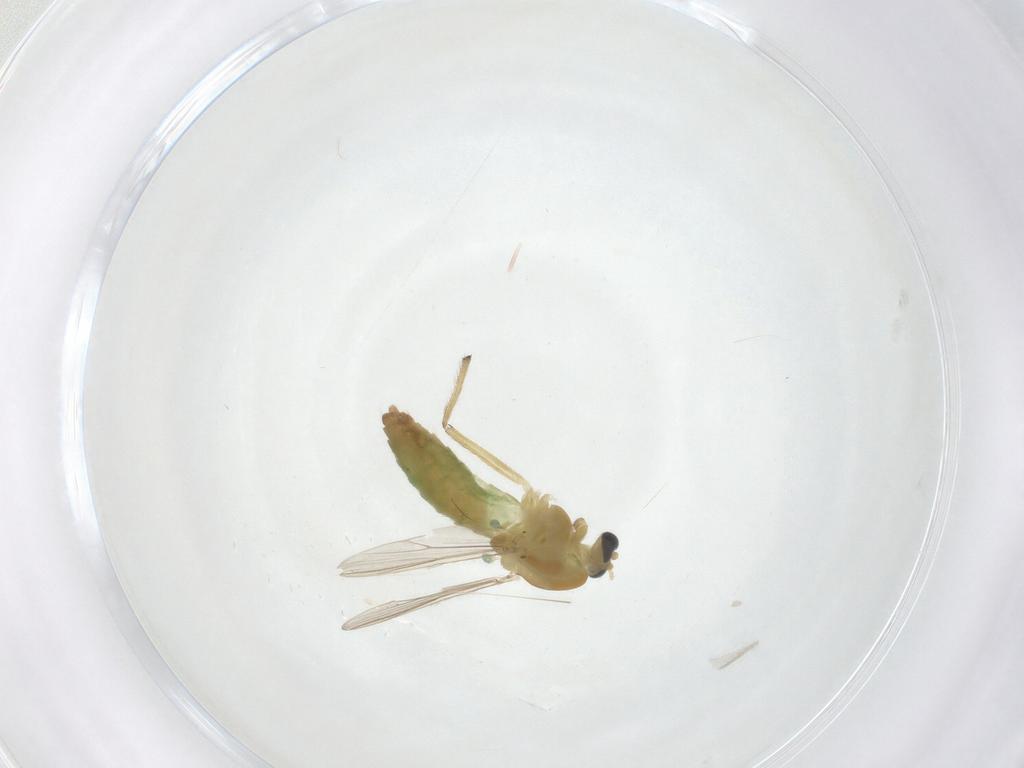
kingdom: Animalia
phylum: Arthropoda
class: Insecta
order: Diptera
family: Chironomidae
